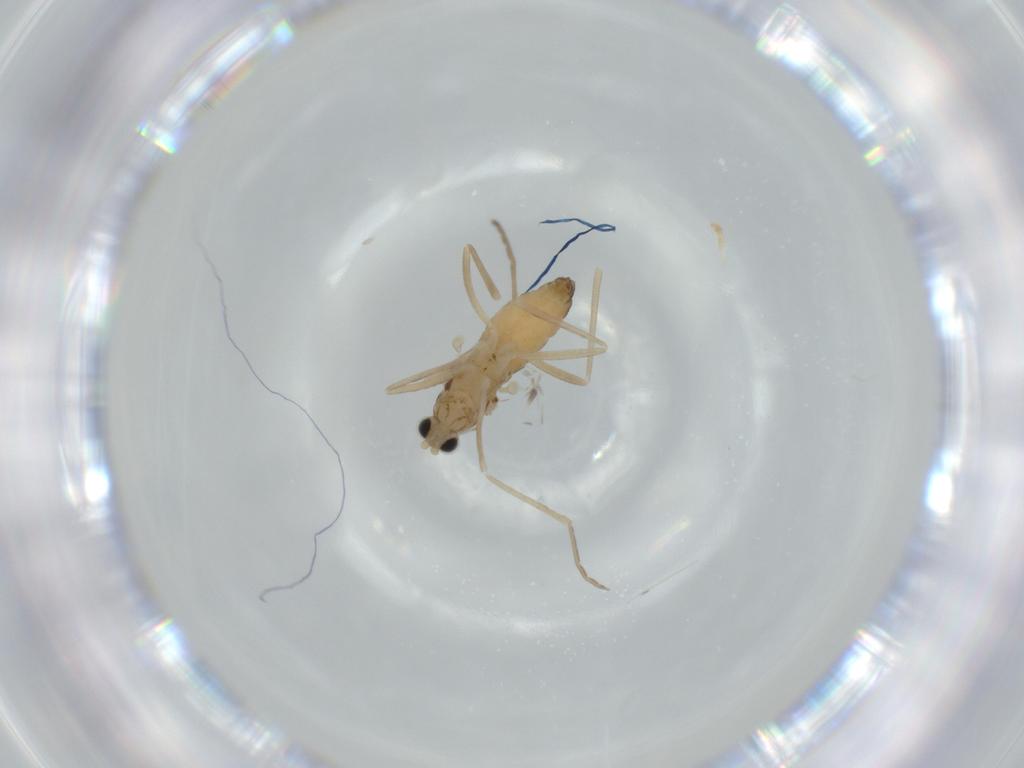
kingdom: Animalia
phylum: Arthropoda
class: Insecta
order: Diptera
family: Cecidomyiidae
